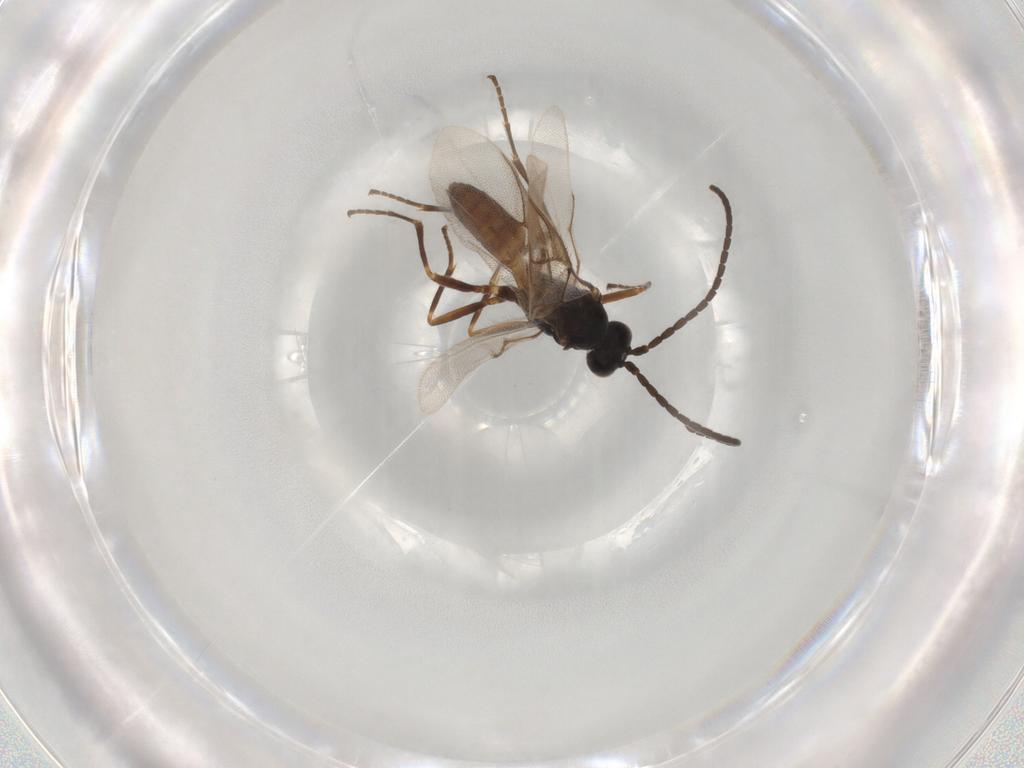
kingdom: Animalia
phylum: Arthropoda
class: Insecta
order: Hymenoptera
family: Braconidae
